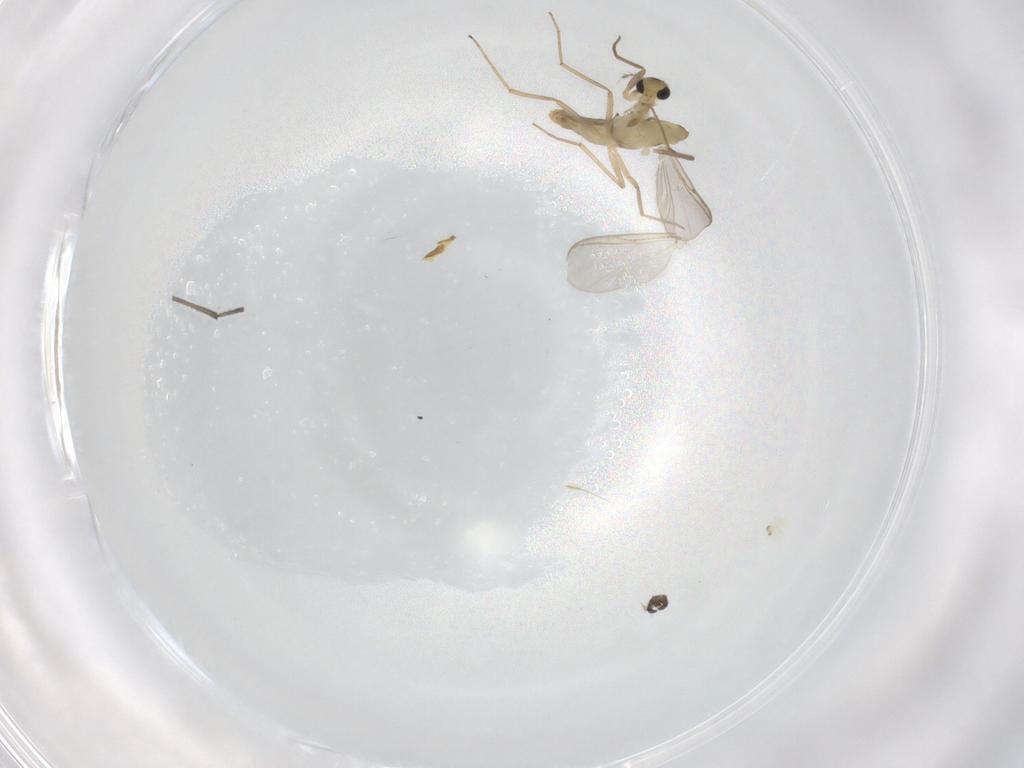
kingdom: Animalia
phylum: Arthropoda
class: Insecta
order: Diptera
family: Chironomidae
